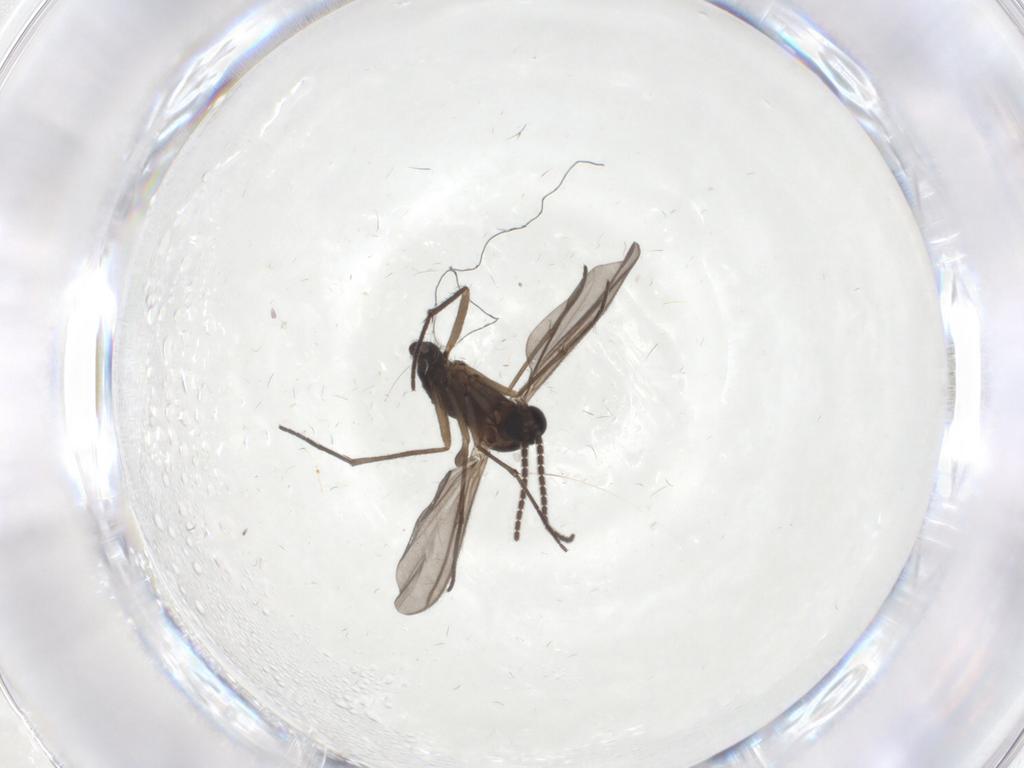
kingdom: Animalia
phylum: Arthropoda
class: Insecta
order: Diptera
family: Sciaridae
